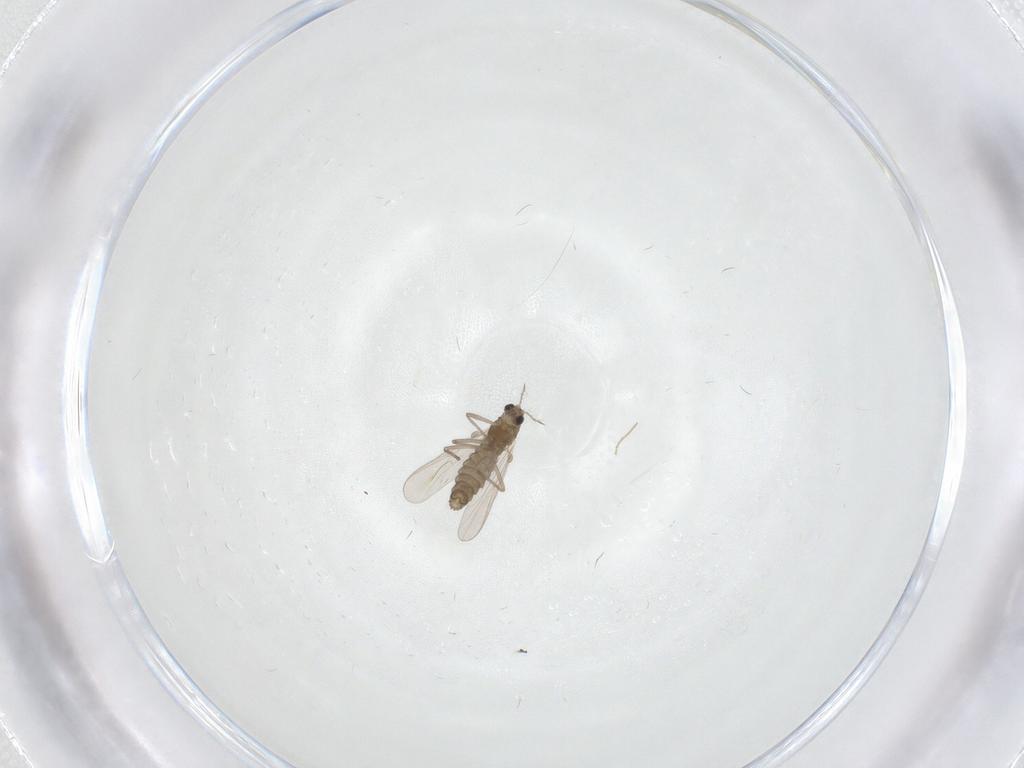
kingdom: Animalia
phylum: Arthropoda
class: Insecta
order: Diptera
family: Chironomidae
